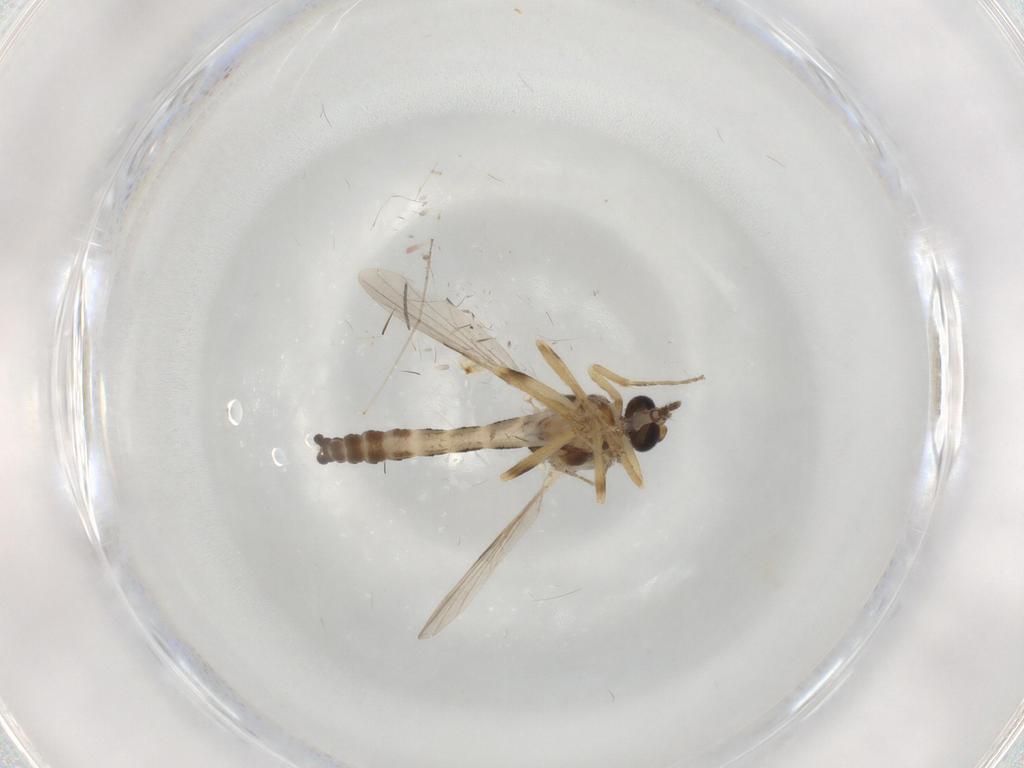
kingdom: Animalia
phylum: Arthropoda
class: Insecta
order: Diptera
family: Ceratopogonidae
